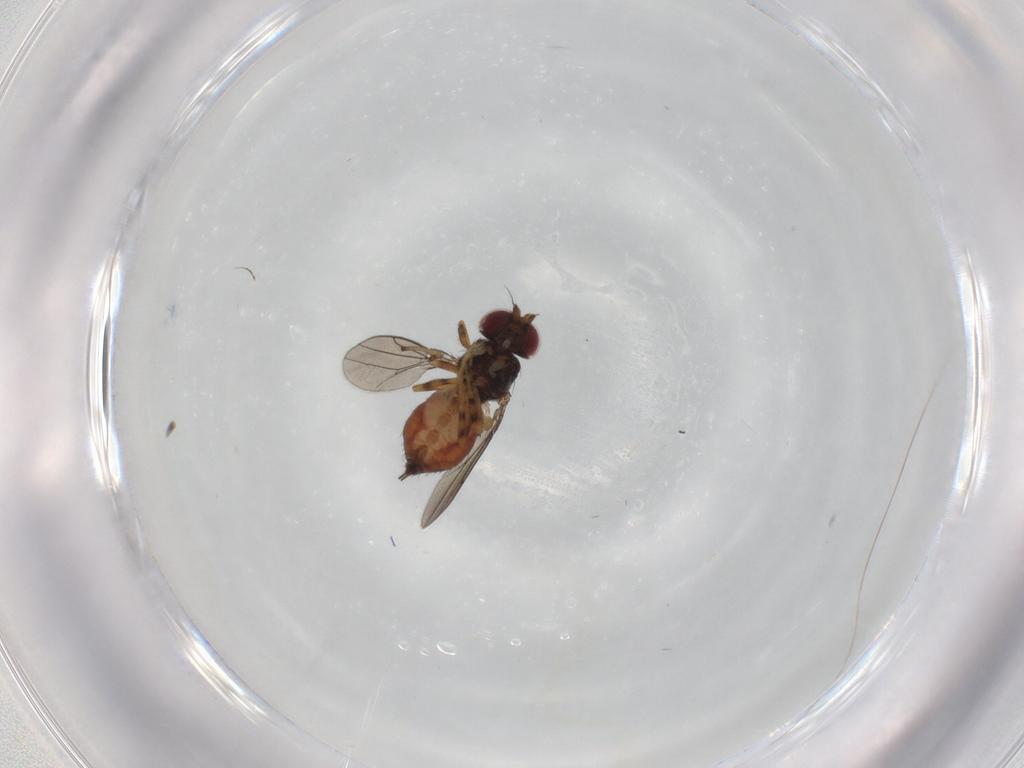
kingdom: Animalia
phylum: Arthropoda
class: Insecta
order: Diptera
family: Chloropidae
